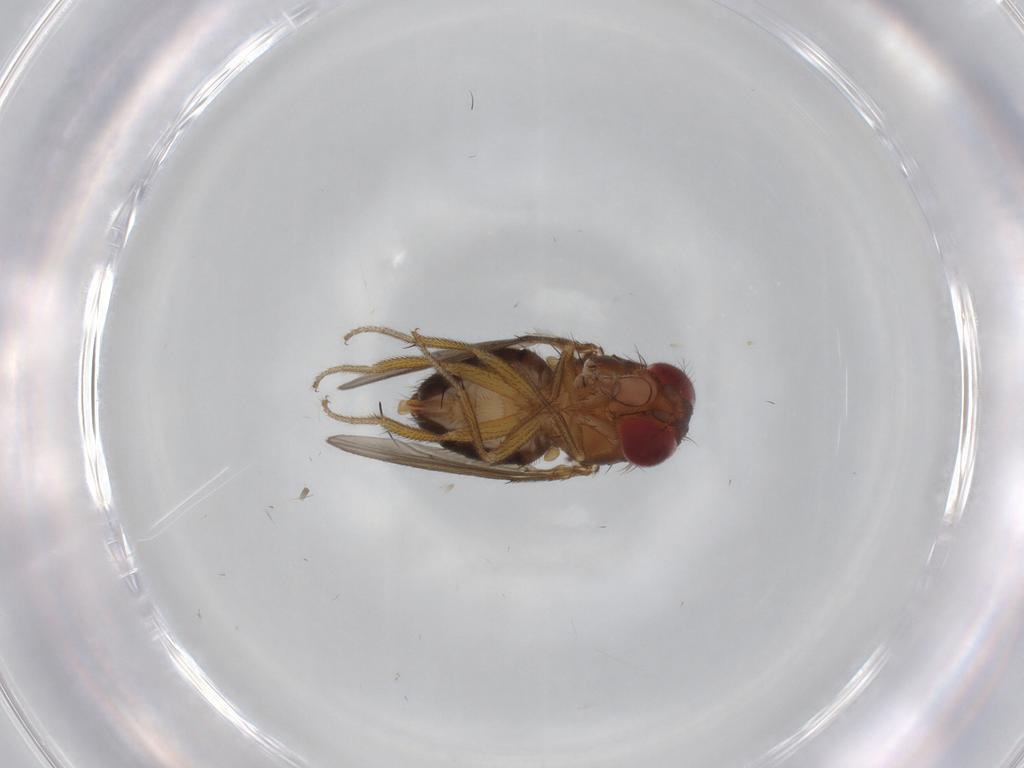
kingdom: Animalia
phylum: Arthropoda
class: Insecta
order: Diptera
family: Drosophilidae
